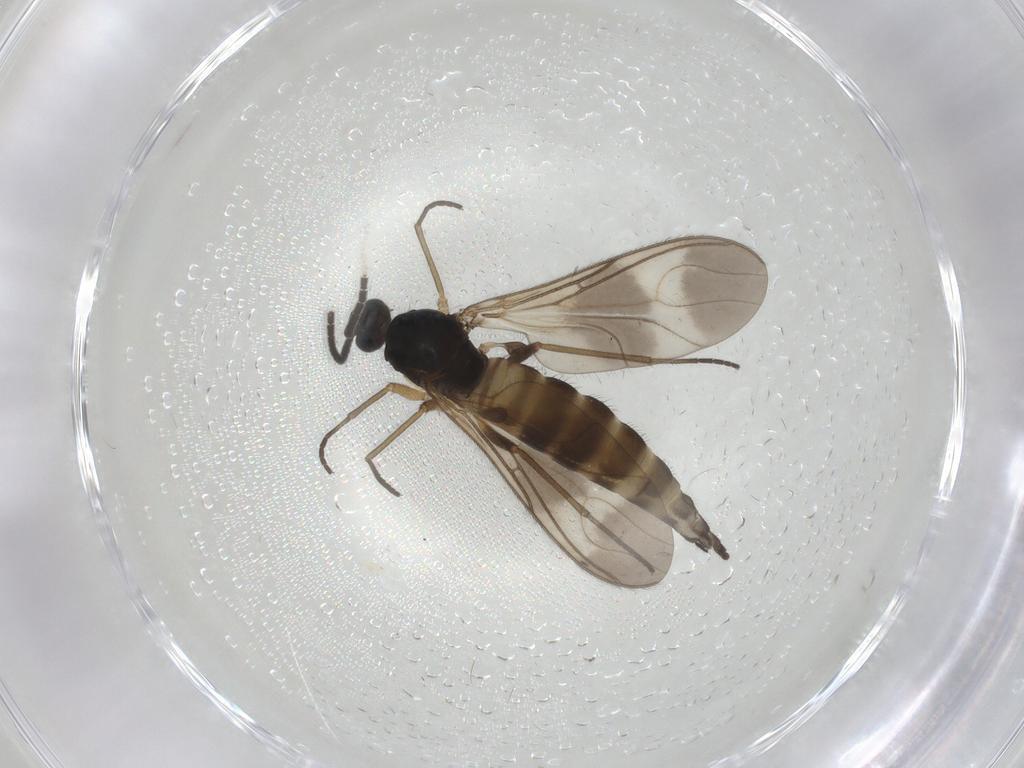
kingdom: Animalia
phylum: Arthropoda
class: Insecta
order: Diptera
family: Sciaridae
